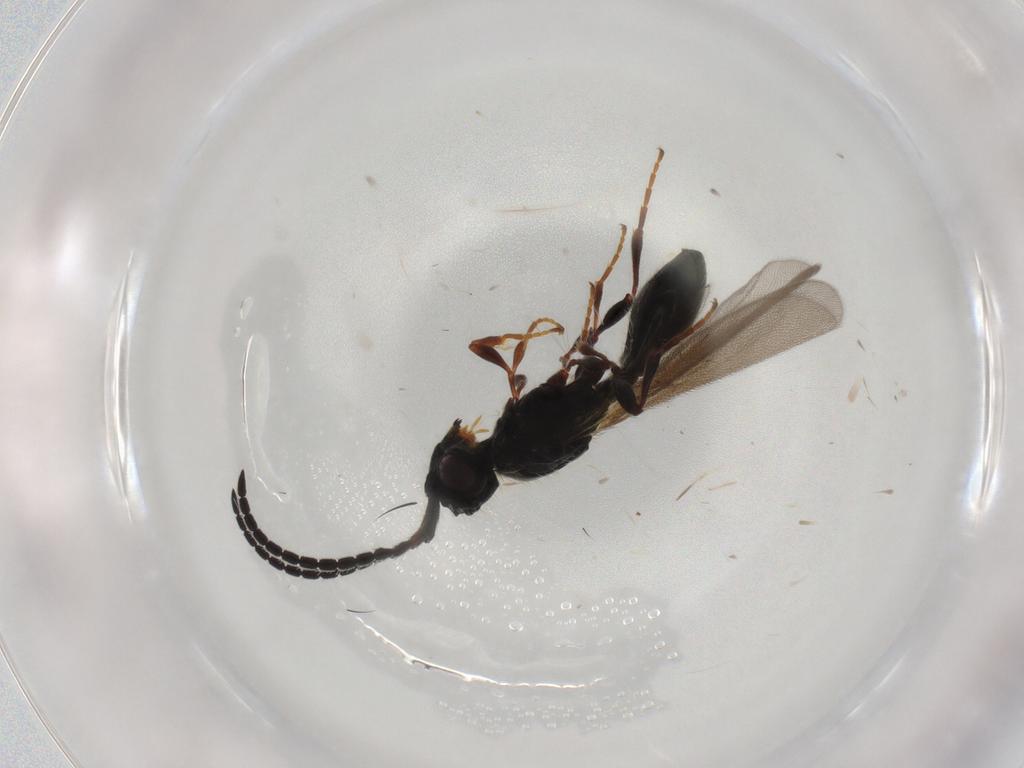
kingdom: Animalia
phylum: Arthropoda
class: Insecta
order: Hymenoptera
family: Diapriidae
